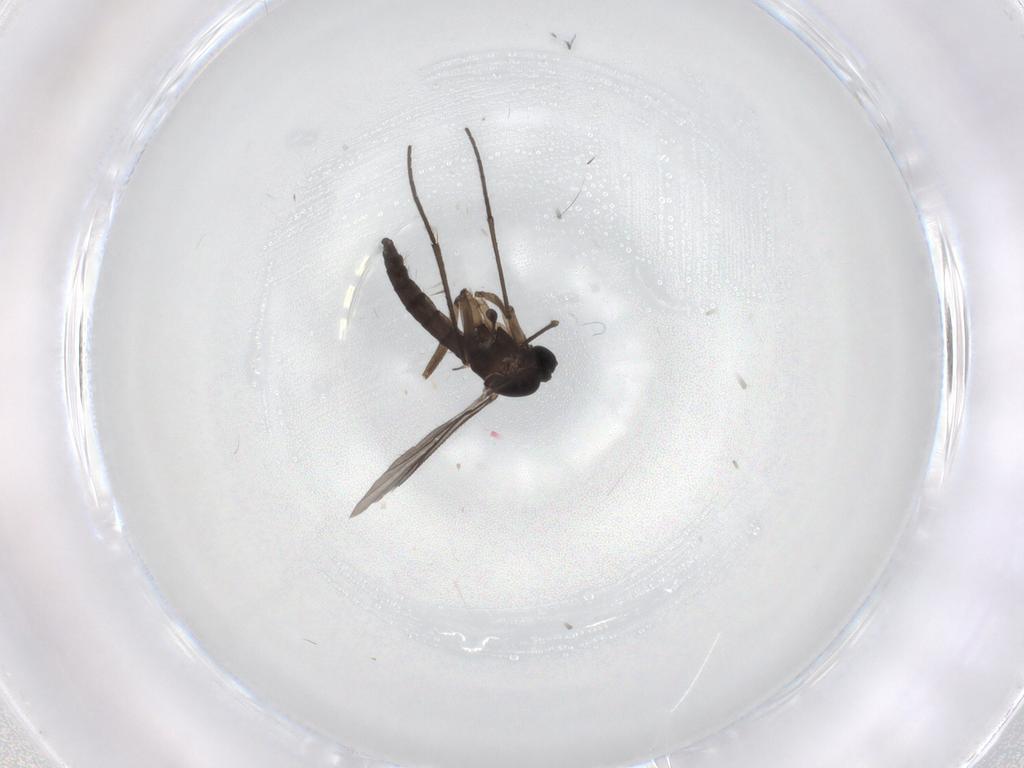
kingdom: Animalia
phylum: Arthropoda
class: Insecta
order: Diptera
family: Sciaridae
